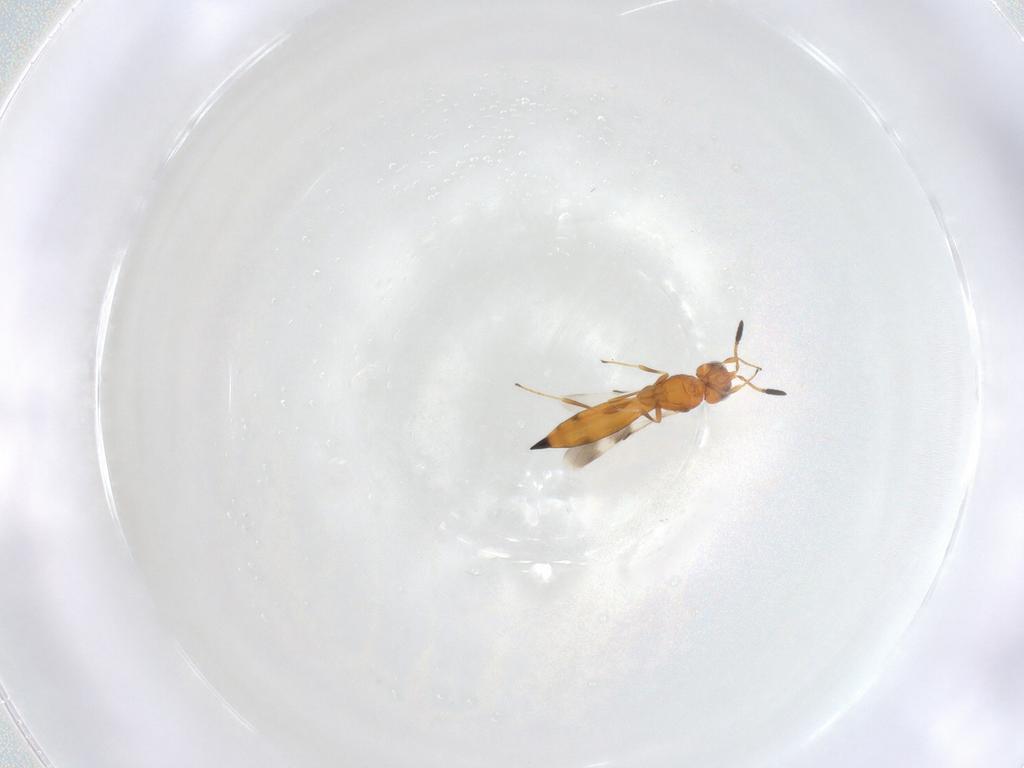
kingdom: Animalia
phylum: Arthropoda
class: Insecta
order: Hymenoptera
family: Scelionidae
